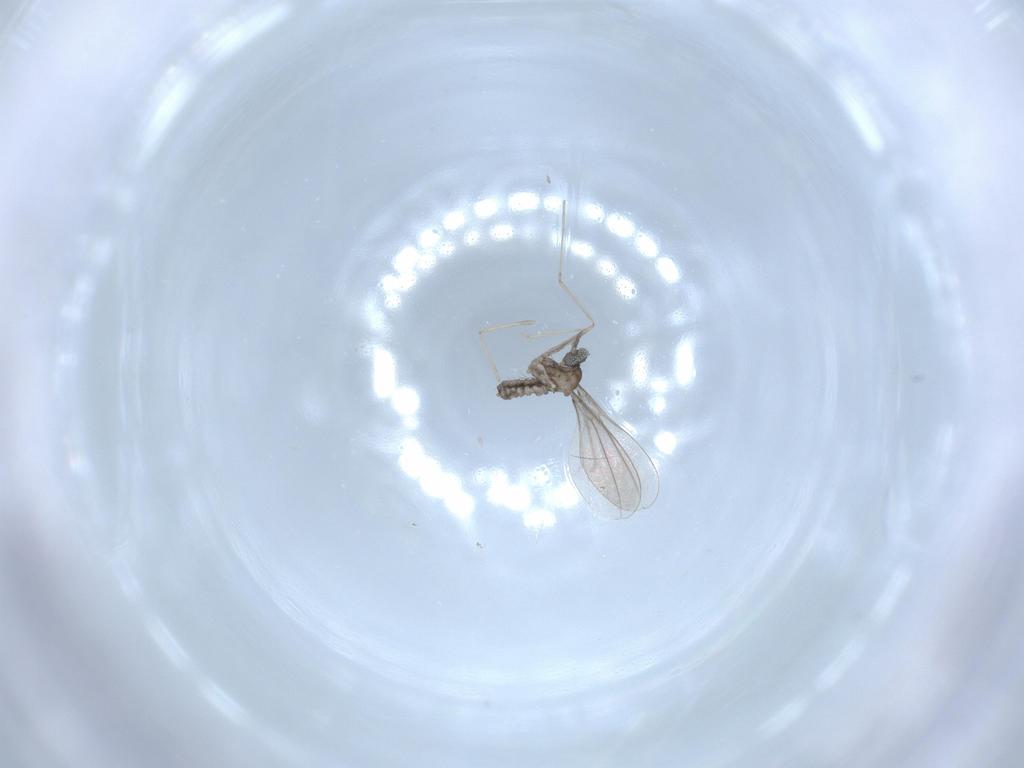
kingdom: Animalia
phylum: Arthropoda
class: Insecta
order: Diptera
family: Cecidomyiidae
